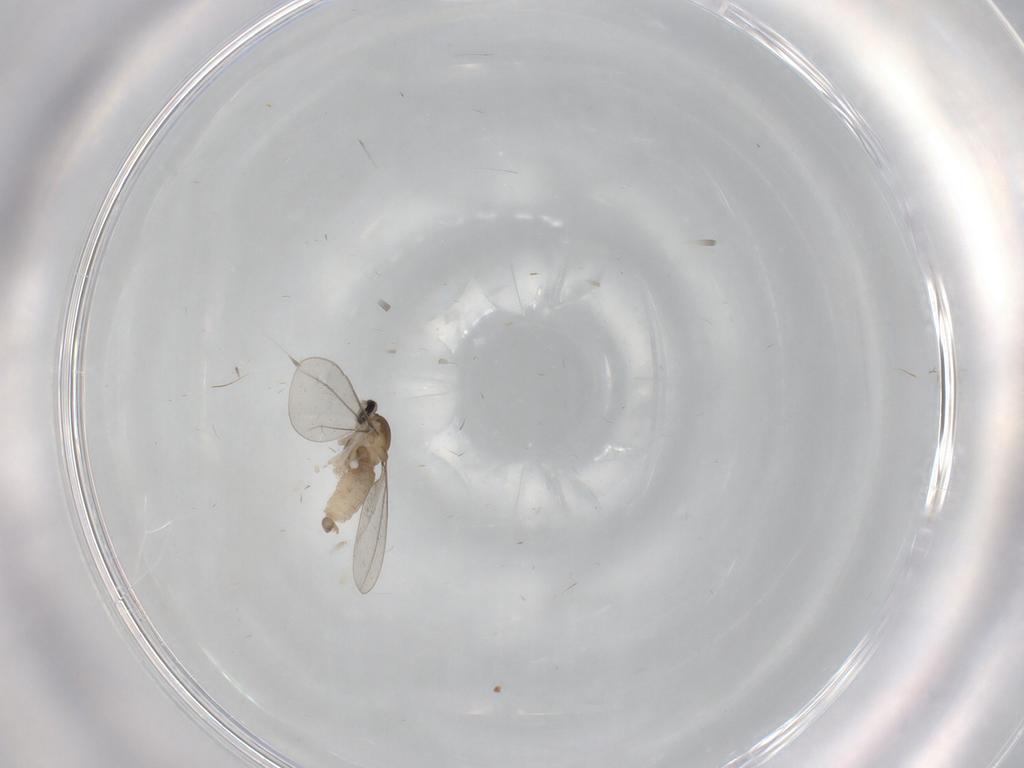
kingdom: Animalia
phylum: Arthropoda
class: Insecta
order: Diptera
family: Cecidomyiidae
